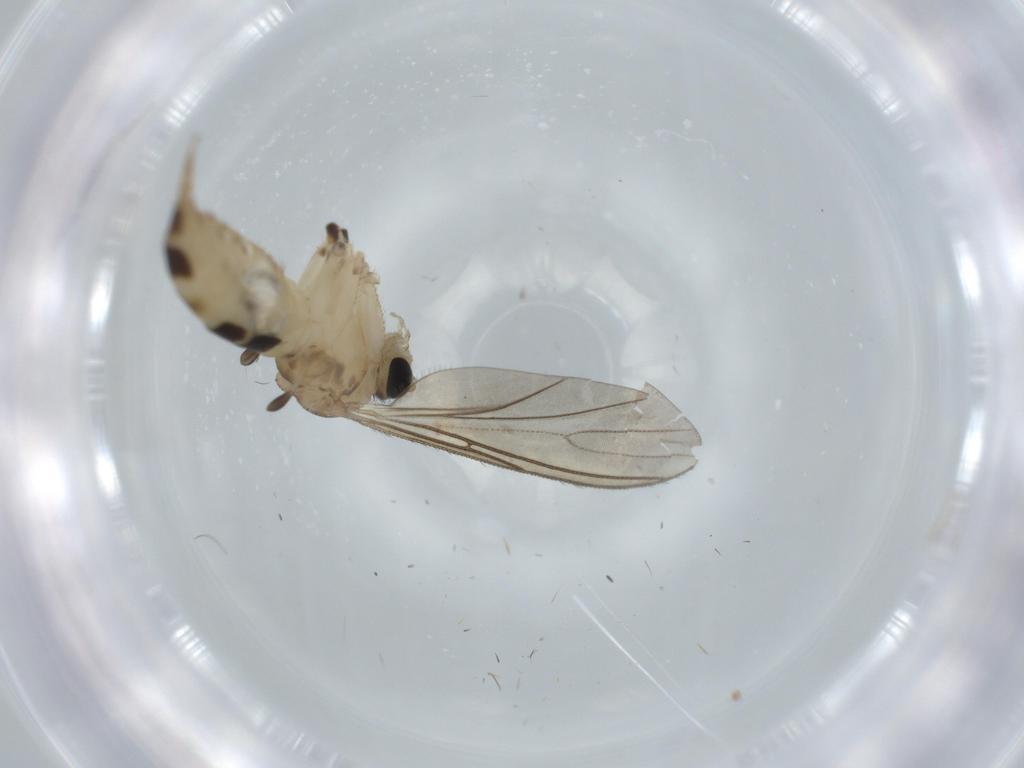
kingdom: Animalia
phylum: Arthropoda
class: Insecta
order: Diptera
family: Sciaridae
